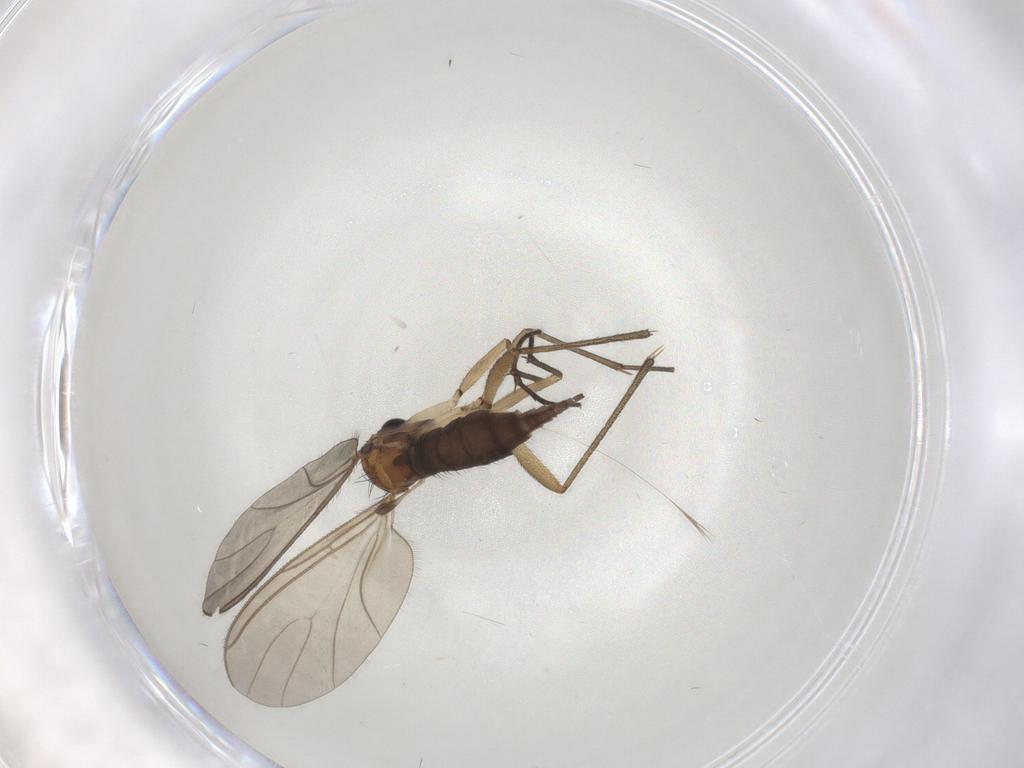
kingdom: Animalia
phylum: Arthropoda
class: Insecta
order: Diptera
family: Sciaridae
